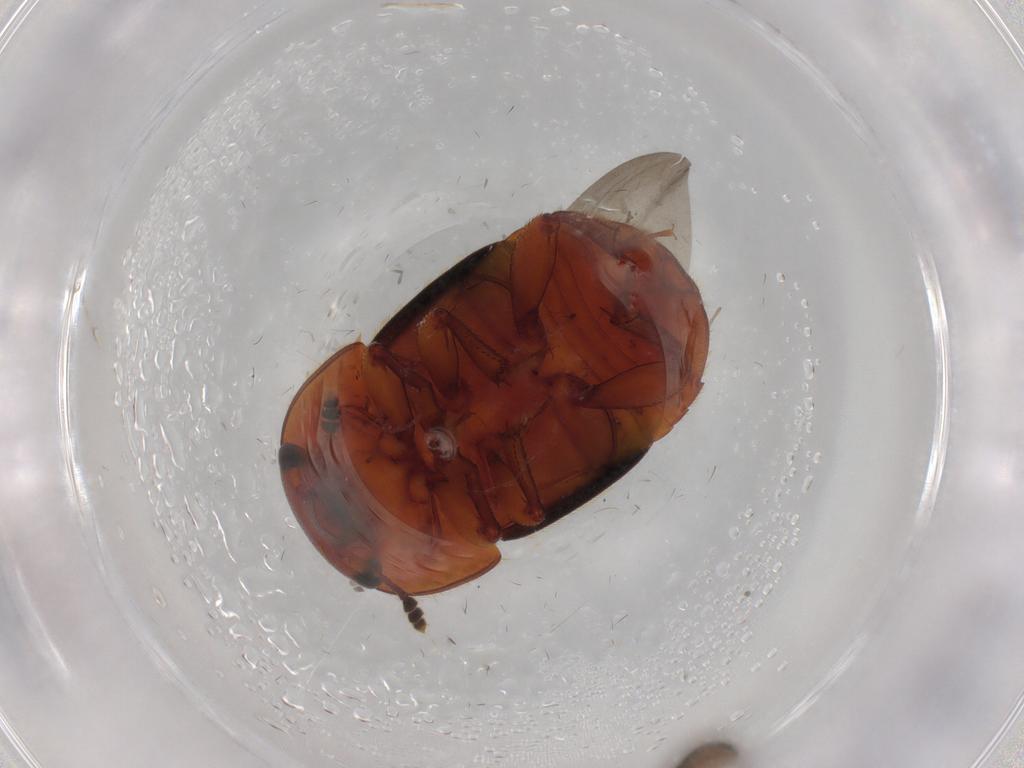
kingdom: Animalia
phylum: Arthropoda
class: Insecta
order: Coleoptera
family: Nitidulidae
